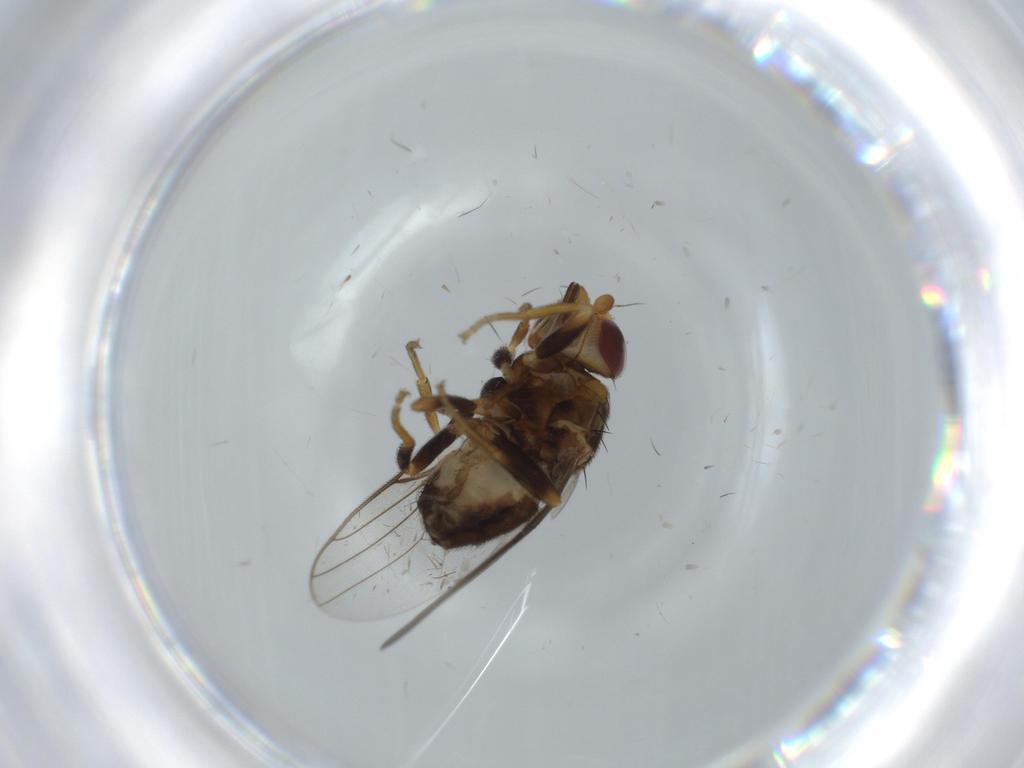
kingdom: Animalia
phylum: Arthropoda
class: Insecta
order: Diptera
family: Chloropidae
